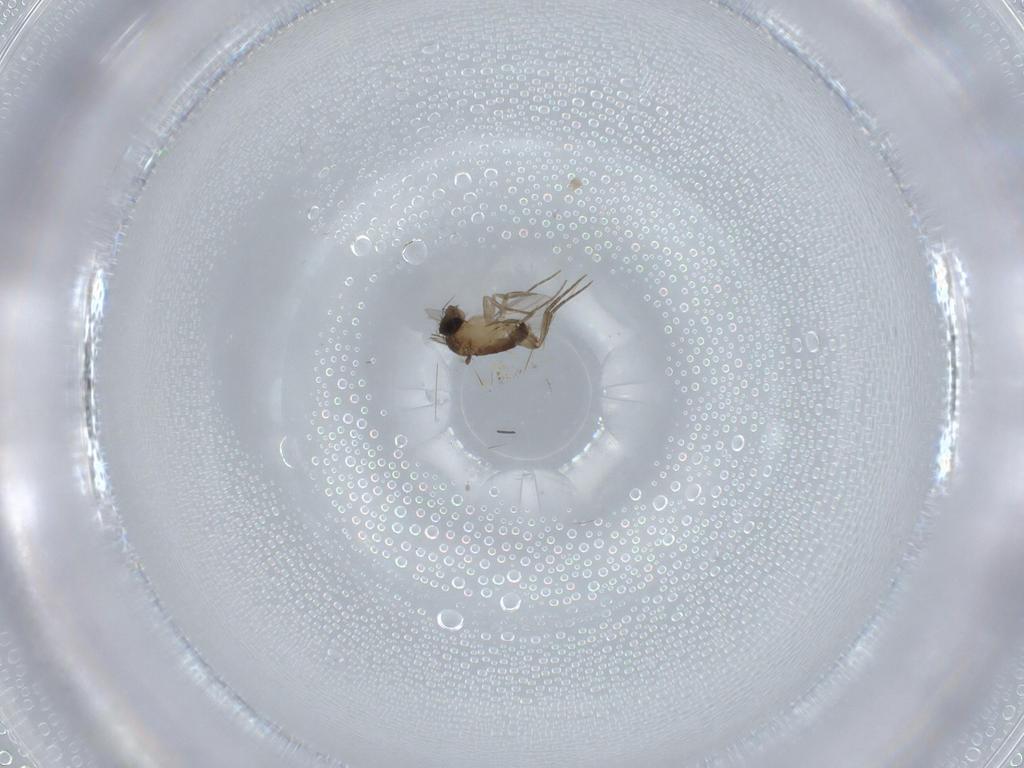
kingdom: Animalia
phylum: Arthropoda
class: Insecta
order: Diptera
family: Phoridae
